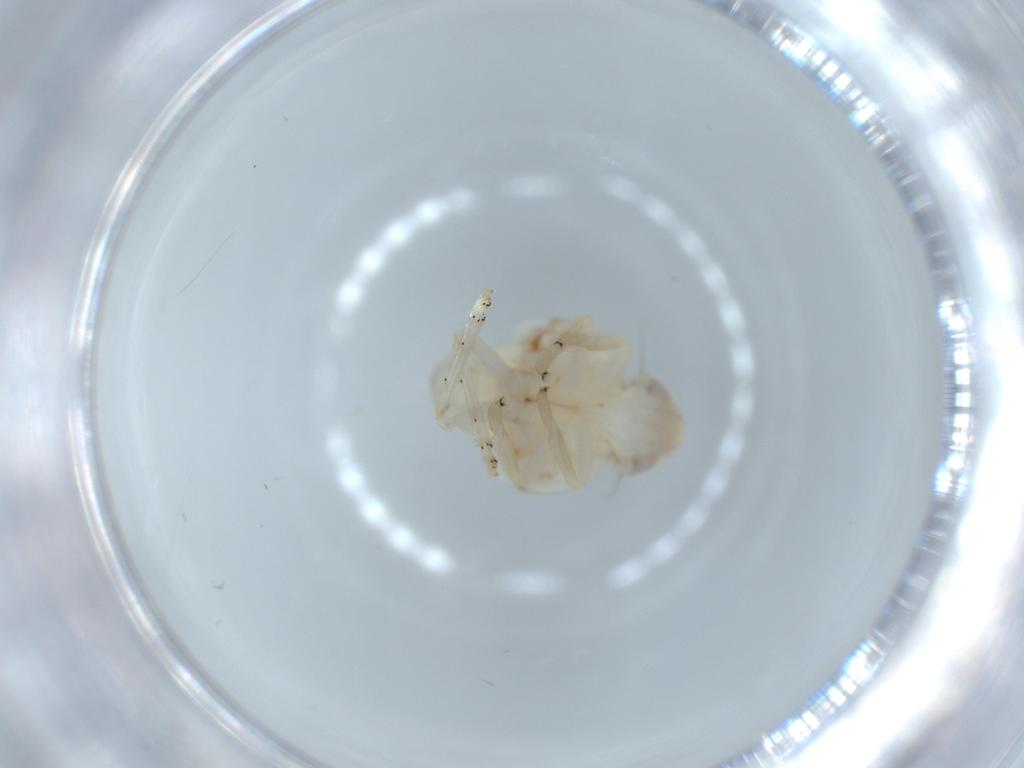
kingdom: Animalia
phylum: Arthropoda
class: Insecta
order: Hemiptera
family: Nogodinidae
